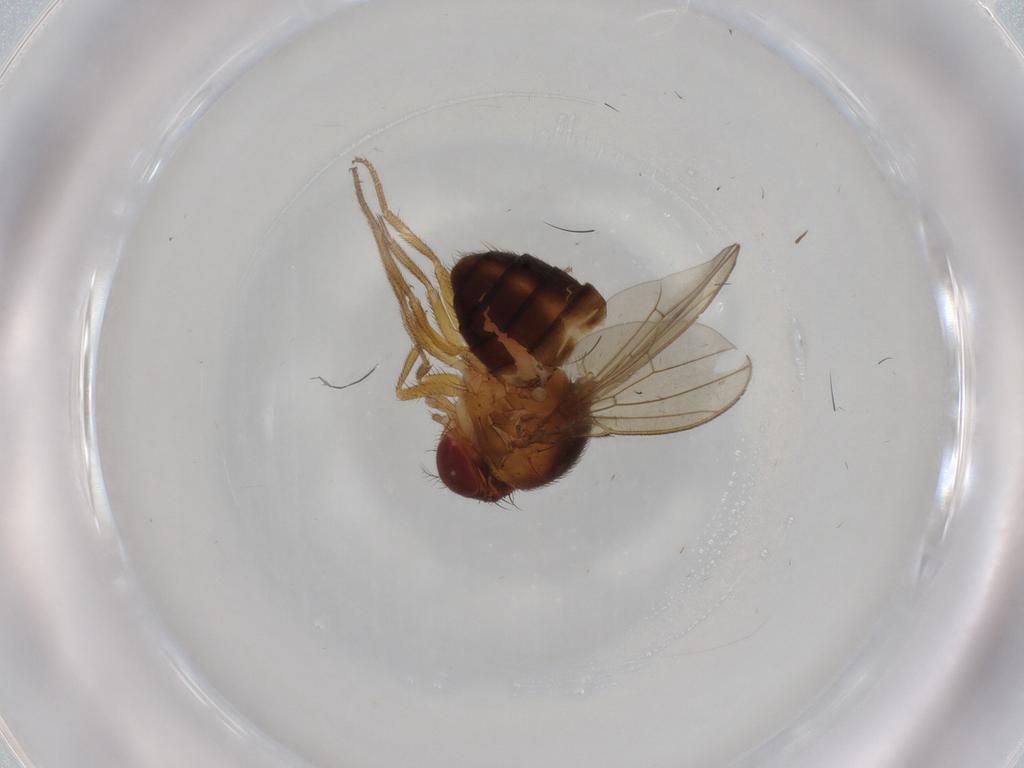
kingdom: Animalia
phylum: Arthropoda
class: Insecta
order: Diptera
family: Drosophilidae
